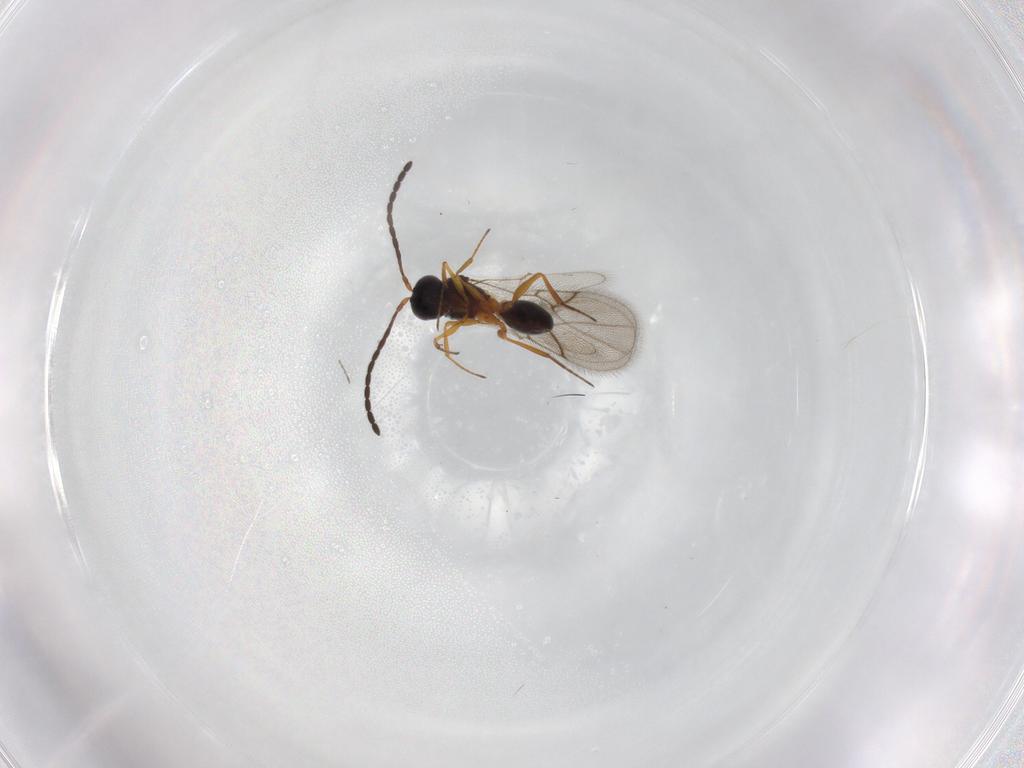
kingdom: Animalia
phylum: Arthropoda
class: Insecta
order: Hymenoptera
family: Figitidae
